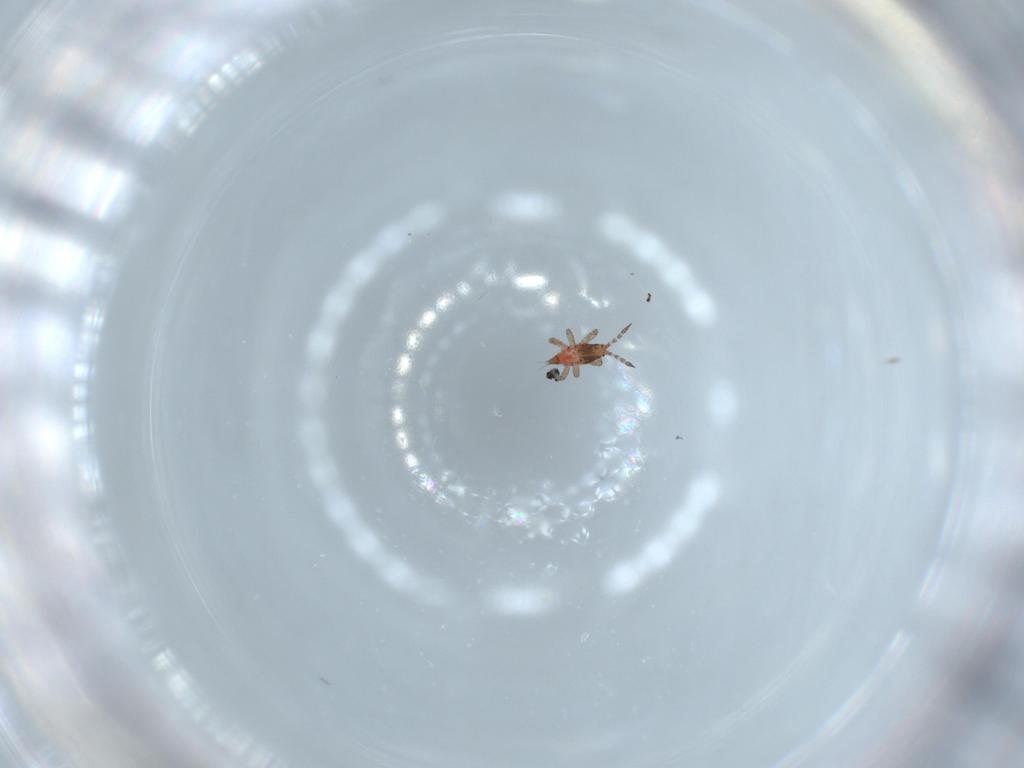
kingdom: Animalia
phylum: Arthropoda
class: Insecta
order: Thysanoptera
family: Phlaeothripidae
